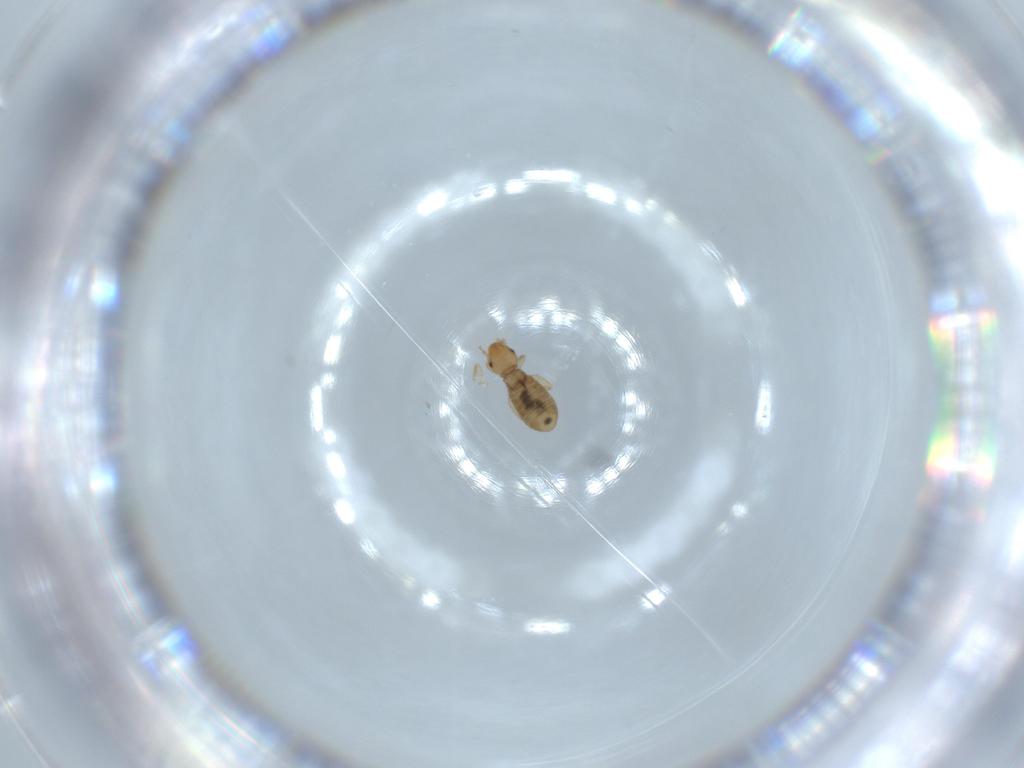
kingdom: Animalia
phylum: Arthropoda
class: Insecta
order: Psocodea
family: Liposcelididae
